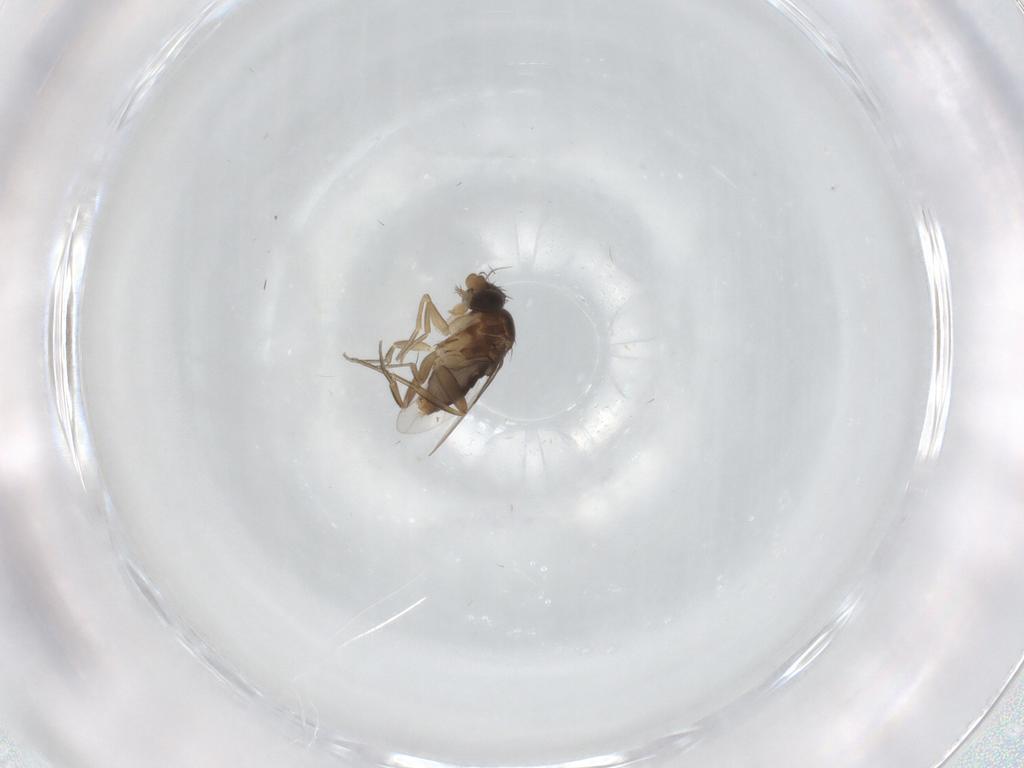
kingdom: Animalia
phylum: Arthropoda
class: Insecta
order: Diptera
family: Phoridae
